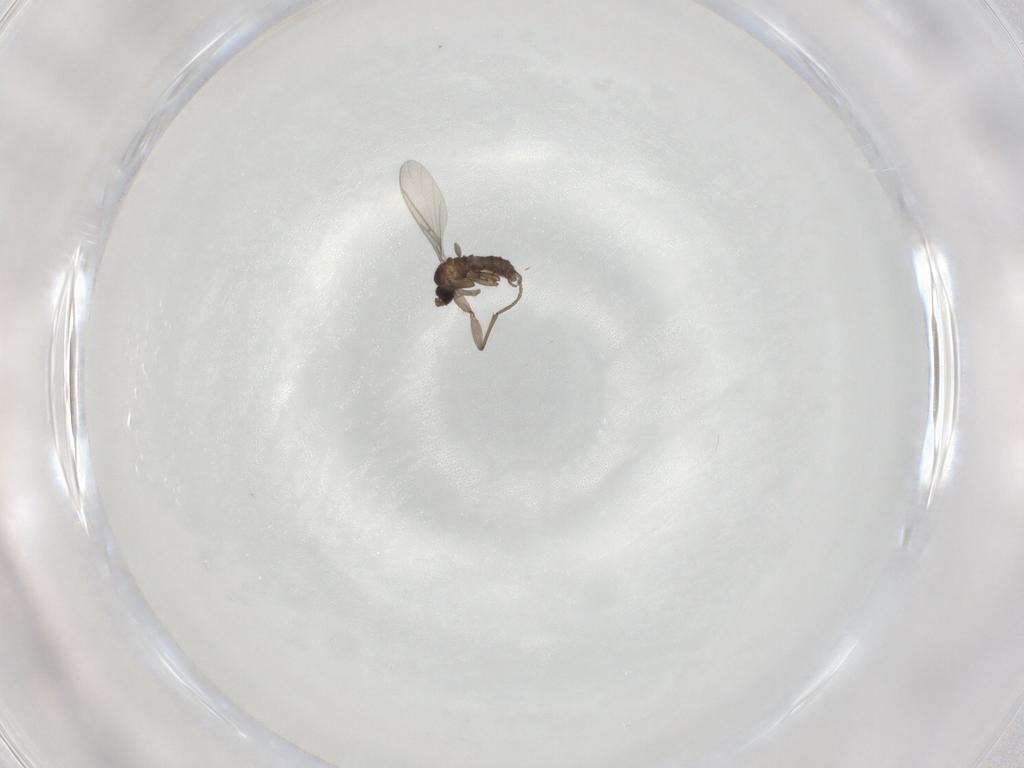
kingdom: Animalia
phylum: Arthropoda
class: Insecta
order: Diptera
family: Sciaridae
